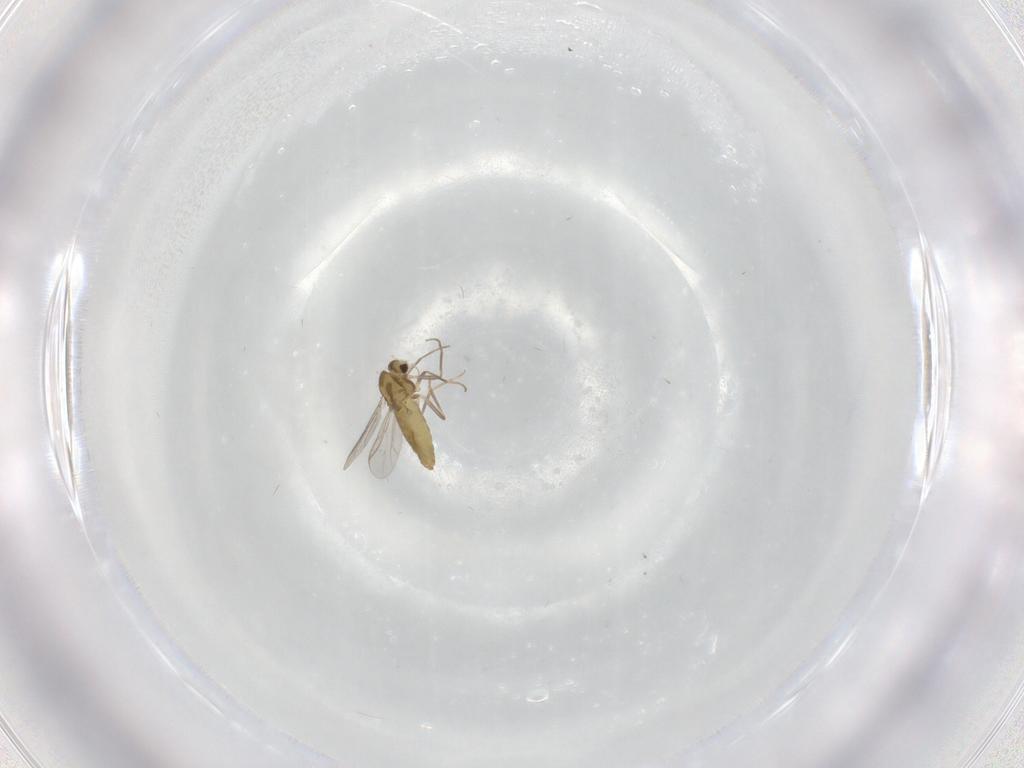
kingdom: Animalia
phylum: Arthropoda
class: Insecta
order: Diptera
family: Chironomidae
